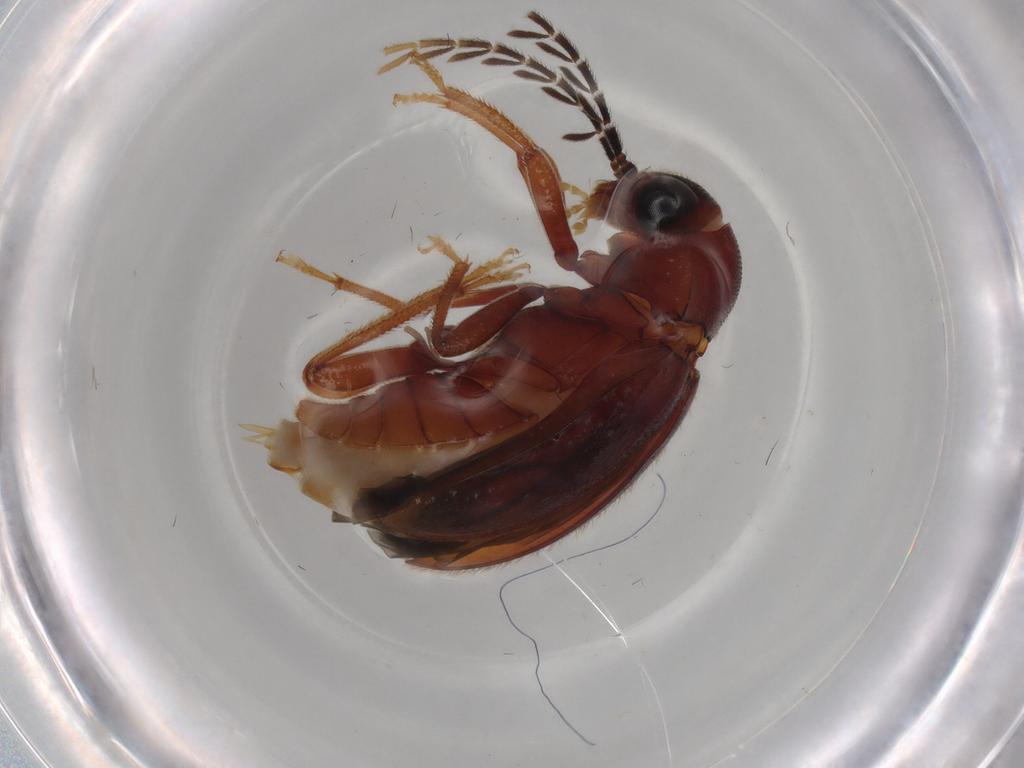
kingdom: Animalia
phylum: Arthropoda
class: Insecta
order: Coleoptera
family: Ptilodactylidae
